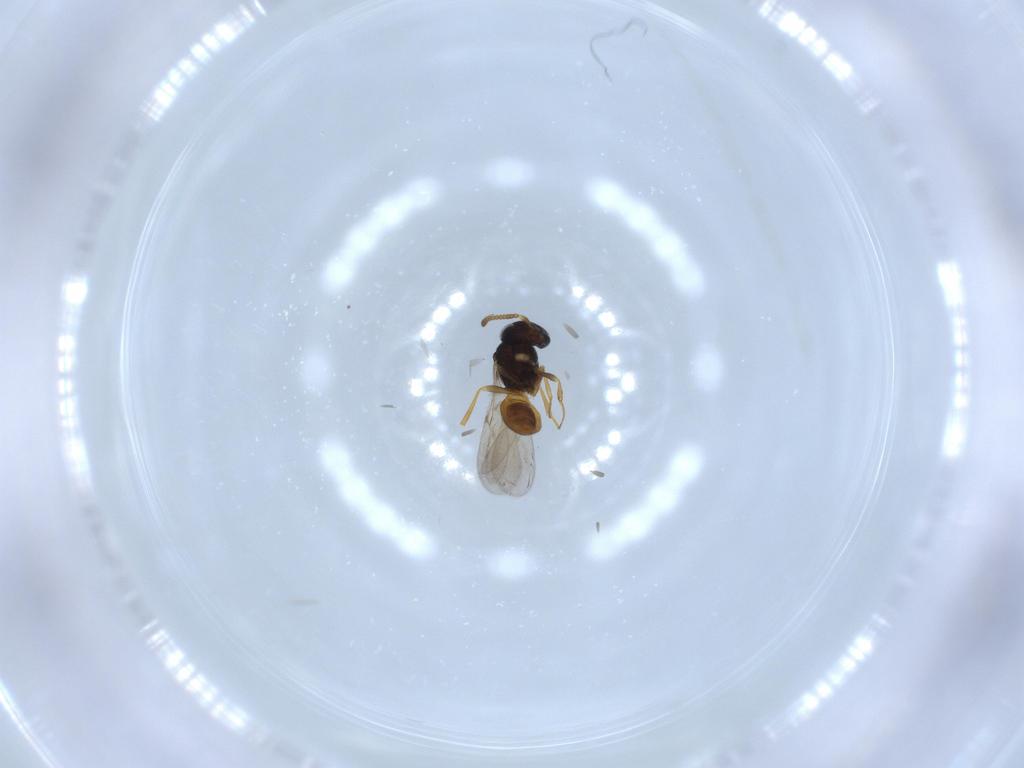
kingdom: Animalia
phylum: Arthropoda
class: Insecta
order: Hymenoptera
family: Scelionidae
